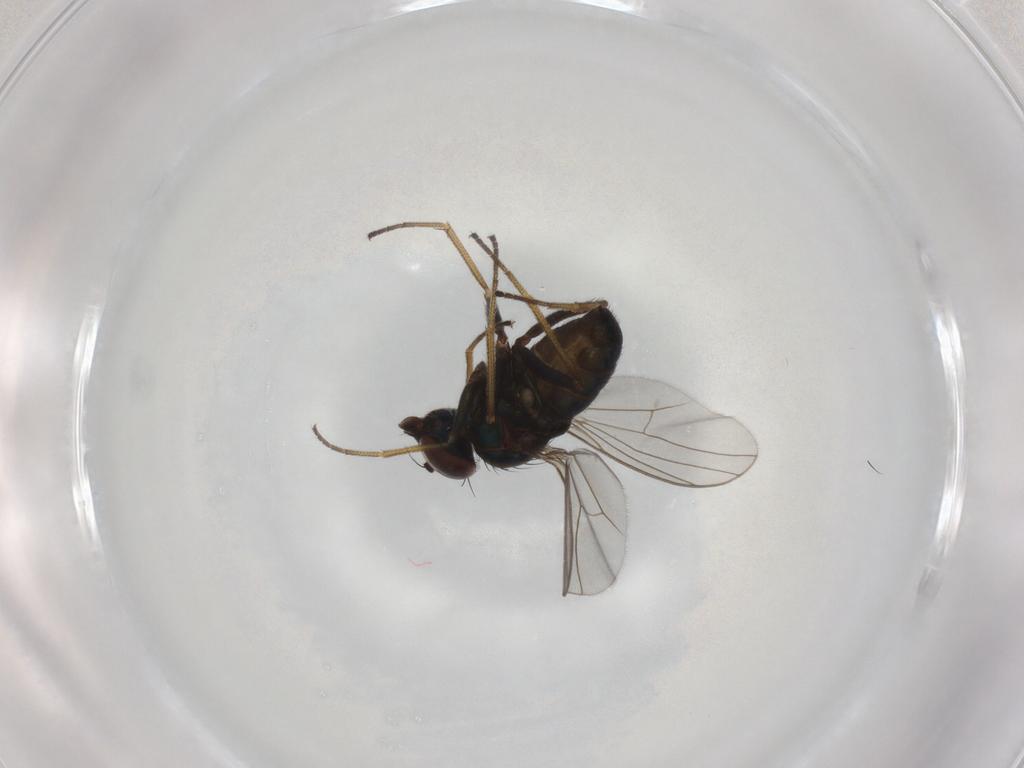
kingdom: Animalia
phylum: Arthropoda
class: Insecta
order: Diptera
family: Dolichopodidae
